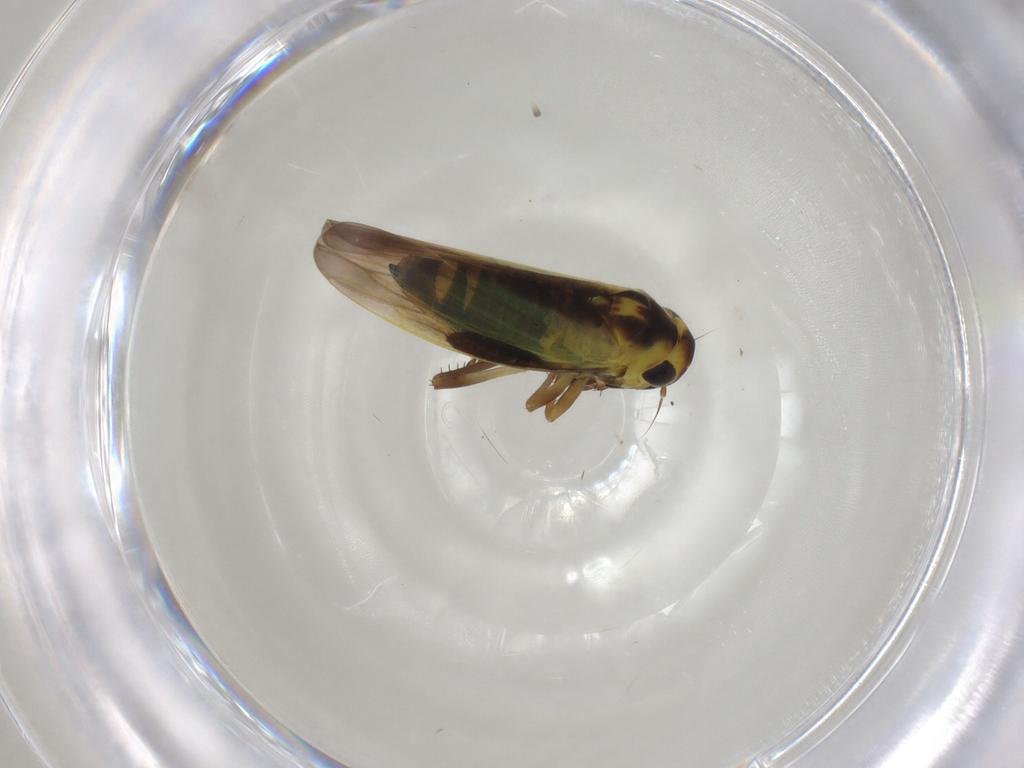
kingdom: Animalia
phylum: Arthropoda
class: Insecta
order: Hemiptera
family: Cicadellidae
